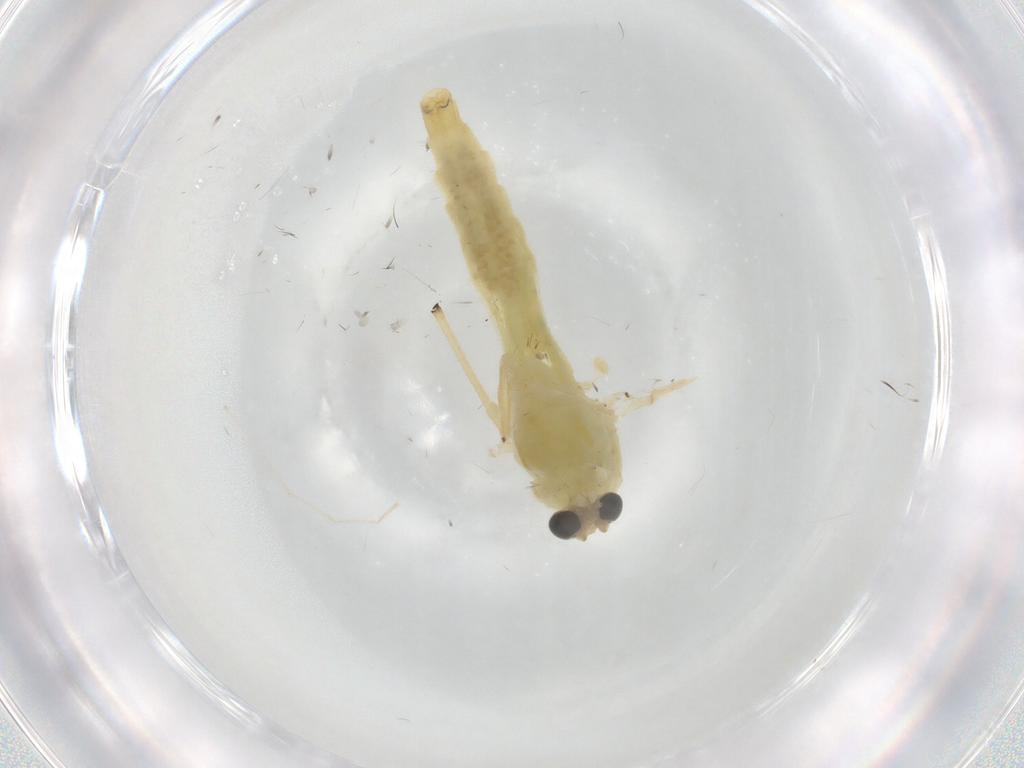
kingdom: Animalia
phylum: Arthropoda
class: Insecta
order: Diptera
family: Chironomidae
